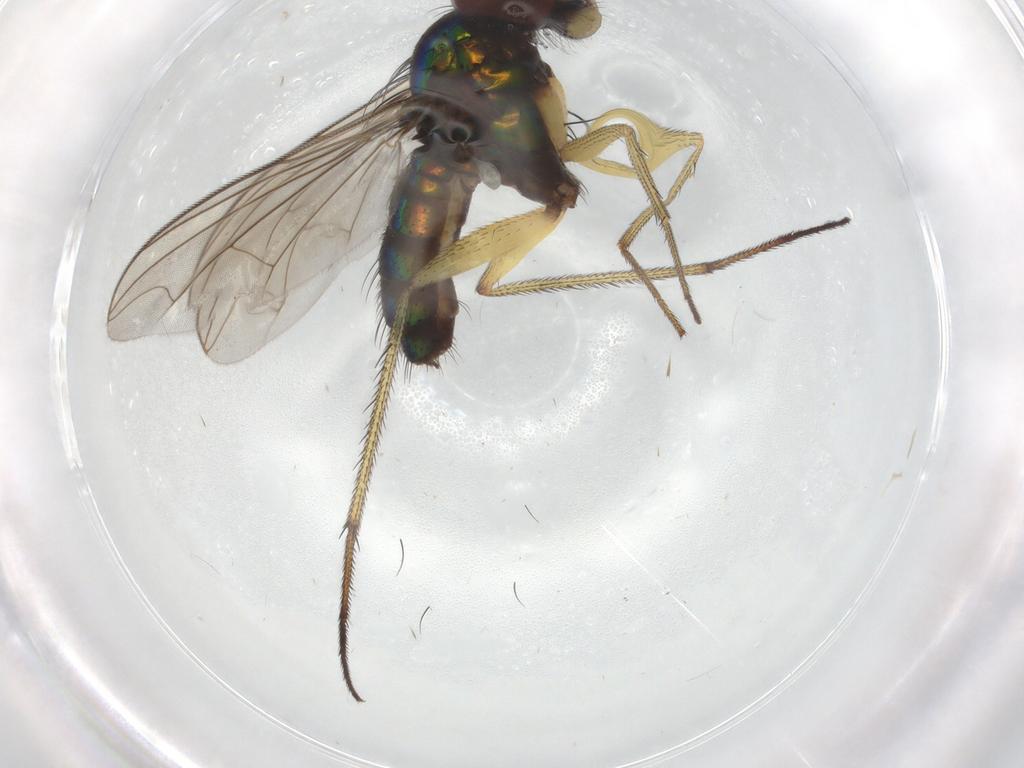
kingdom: Animalia
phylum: Arthropoda
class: Insecta
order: Diptera
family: Dolichopodidae
